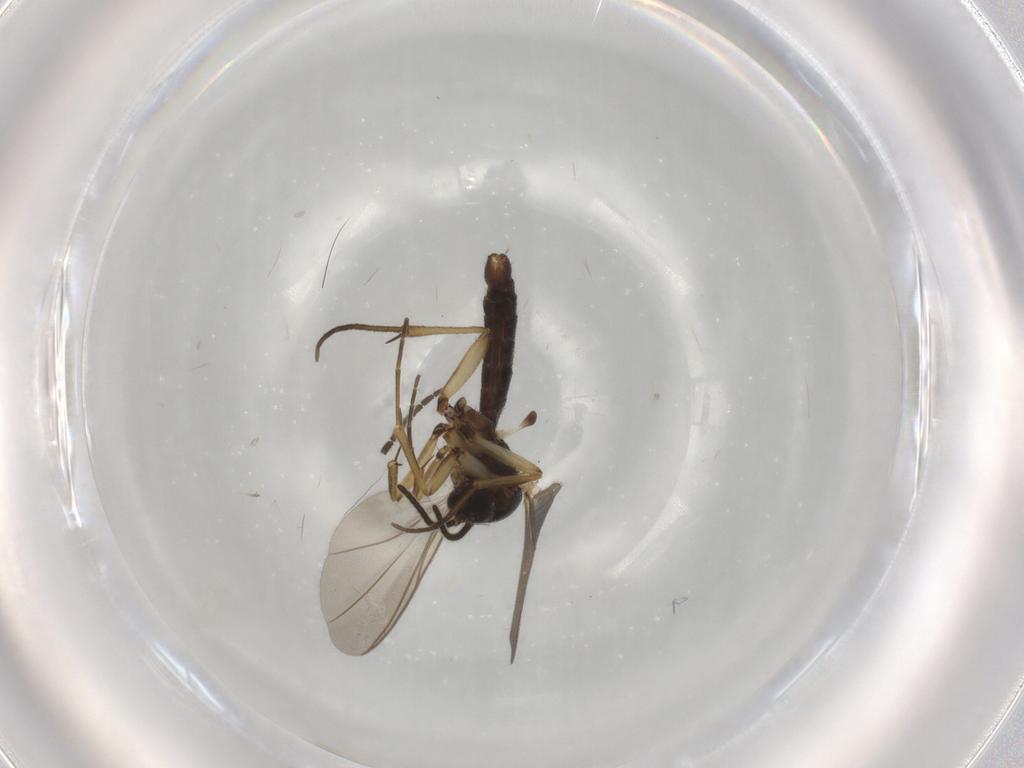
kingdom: Animalia
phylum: Arthropoda
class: Insecta
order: Diptera
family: Mycetophilidae
